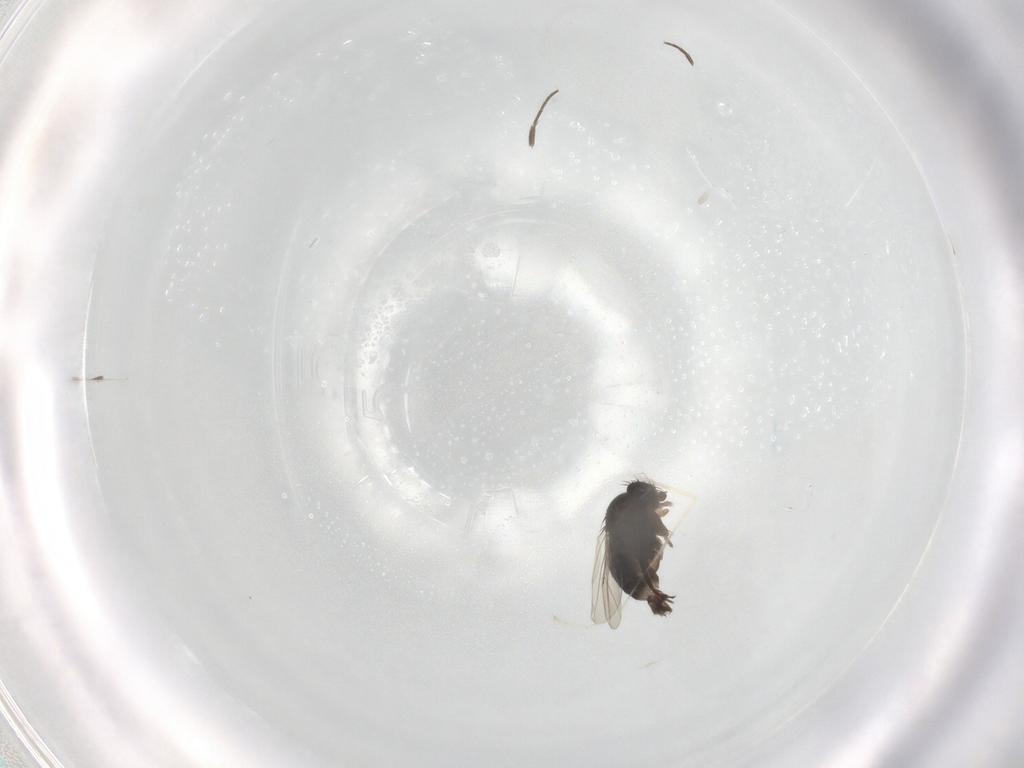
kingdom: Animalia
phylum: Arthropoda
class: Insecta
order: Diptera
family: Phoridae
